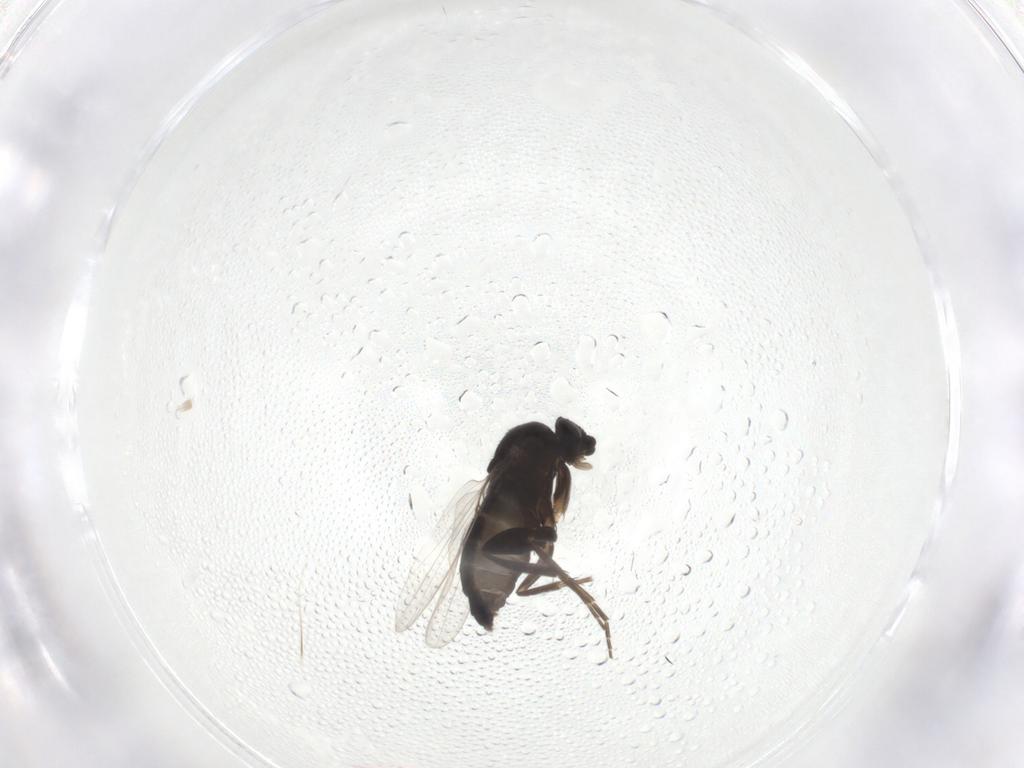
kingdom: Animalia
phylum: Arthropoda
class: Insecta
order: Diptera
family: Phoridae
